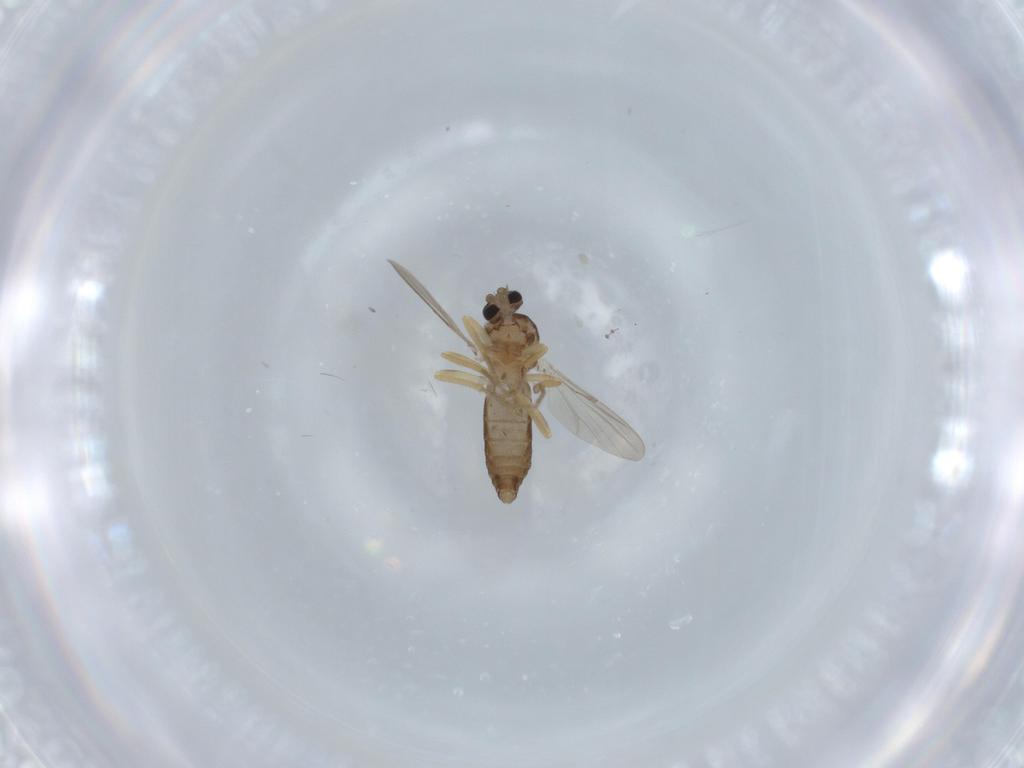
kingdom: Animalia
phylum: Arthropoda
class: Insecta
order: Diptera
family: Ceratopogonidae
